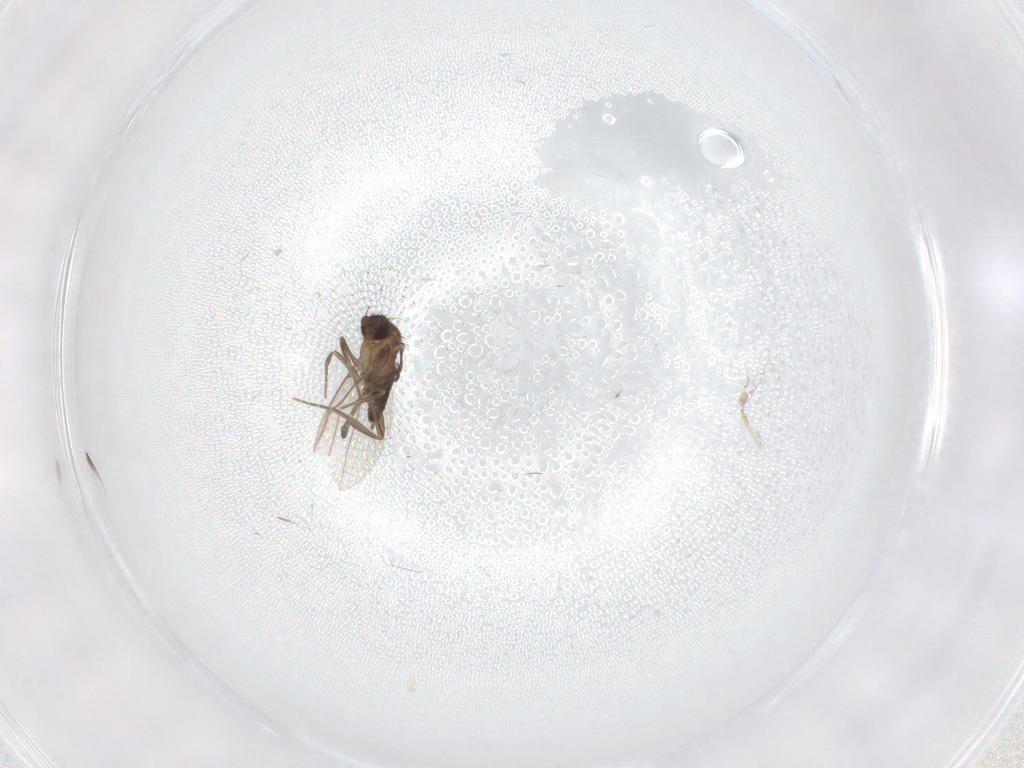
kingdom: Animalia
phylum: Arthropoda
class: Insecta
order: Diptera
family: Chironomidae
